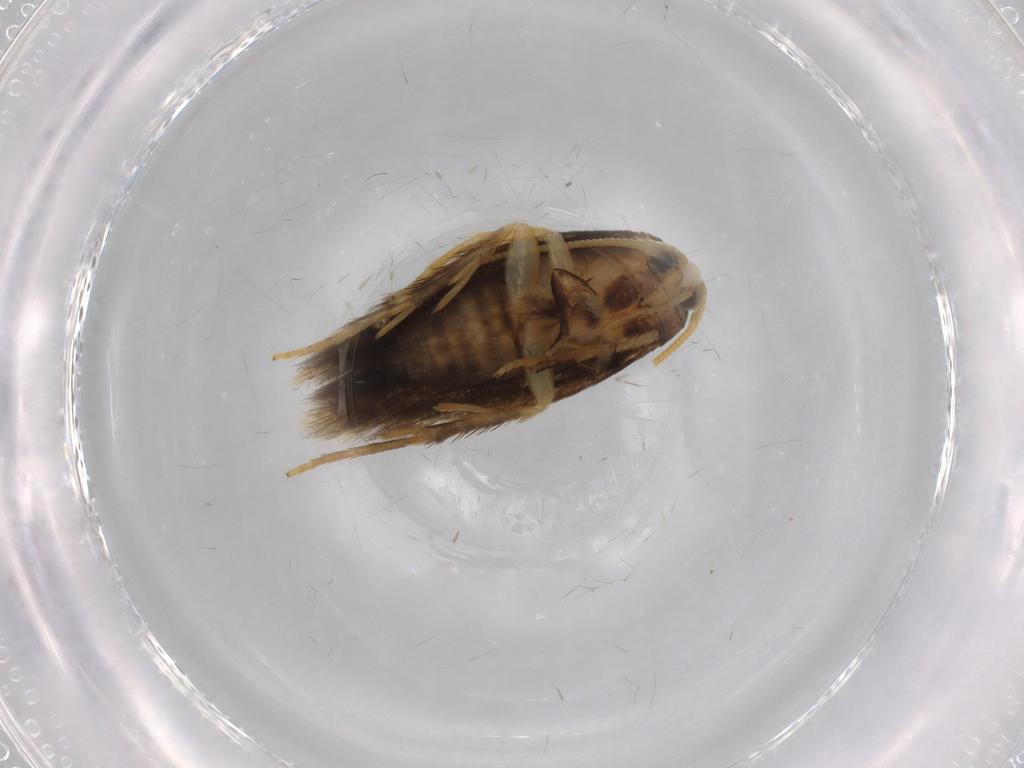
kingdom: Animalia
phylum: Arthropoda
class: Insecta
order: Lepidoptera
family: Nepticulidae
